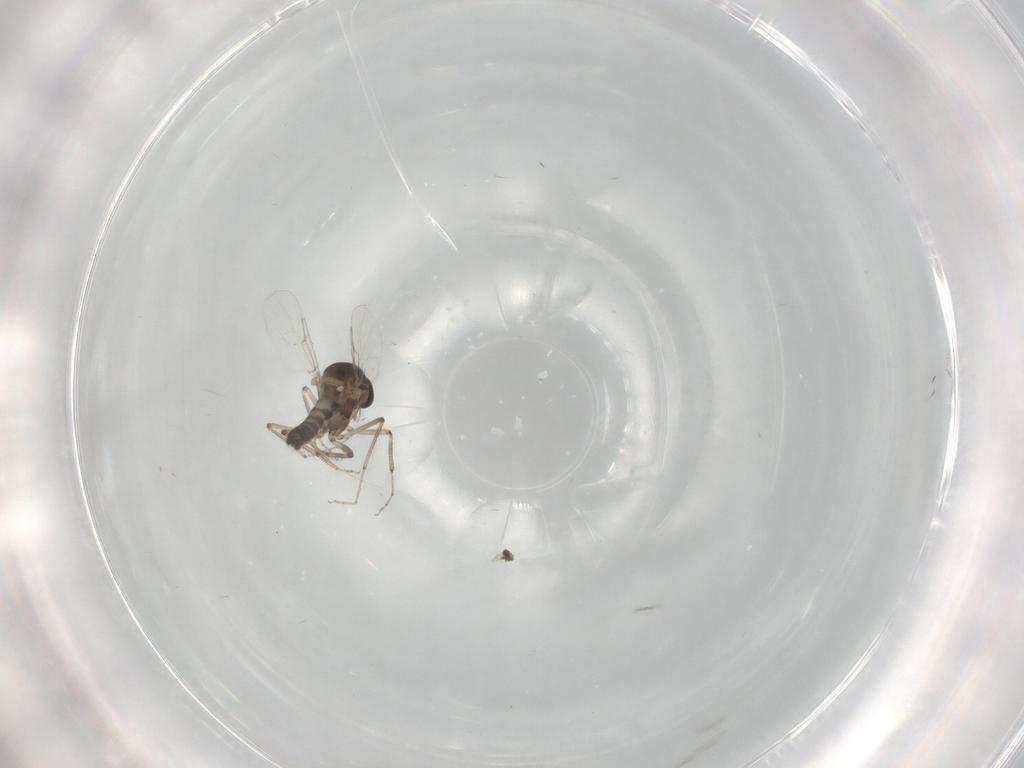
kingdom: Animalia
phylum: Arthropoda
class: Insecta
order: Diptera
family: Ceratopogonidae
